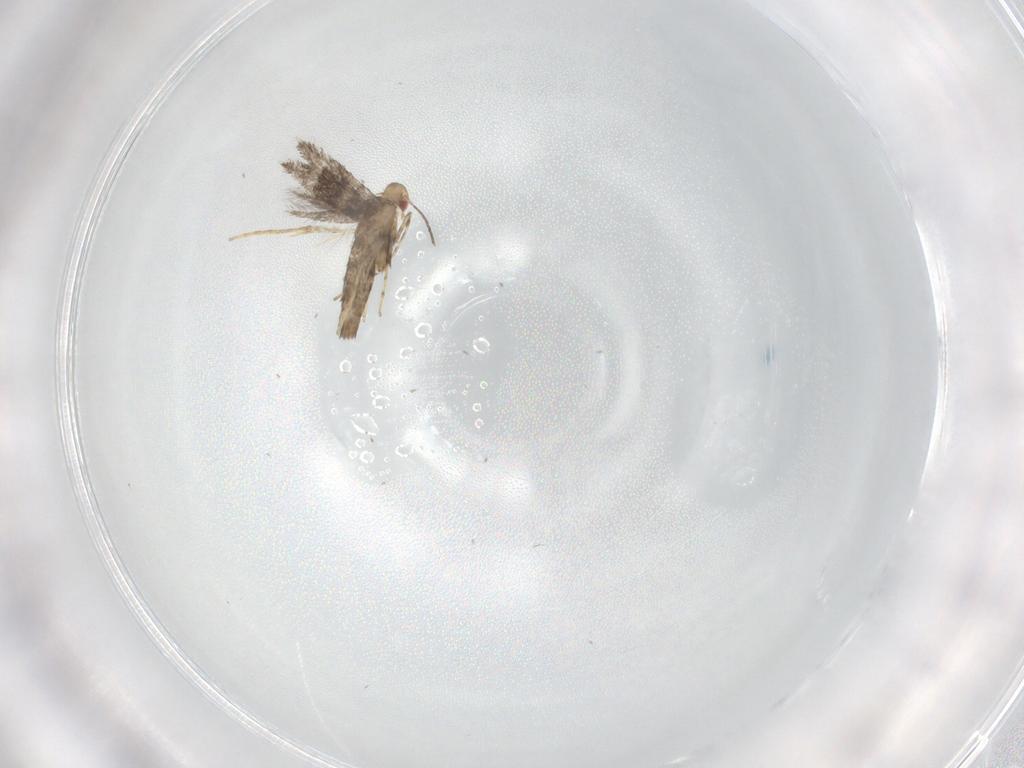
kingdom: Animalia
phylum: Arthropoda
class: Insecta
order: Lepidoptera
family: Gracillariidae
